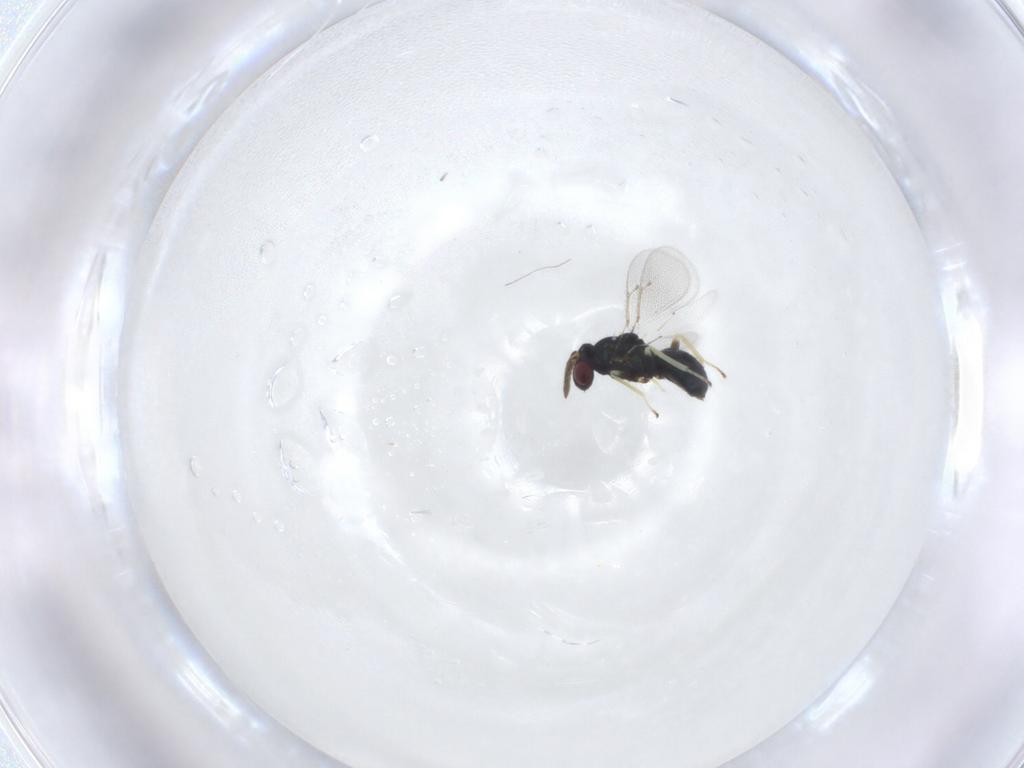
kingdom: Animalia
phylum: Arthropoda
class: Insecta
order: Hymenoptera
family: Eulophidae
